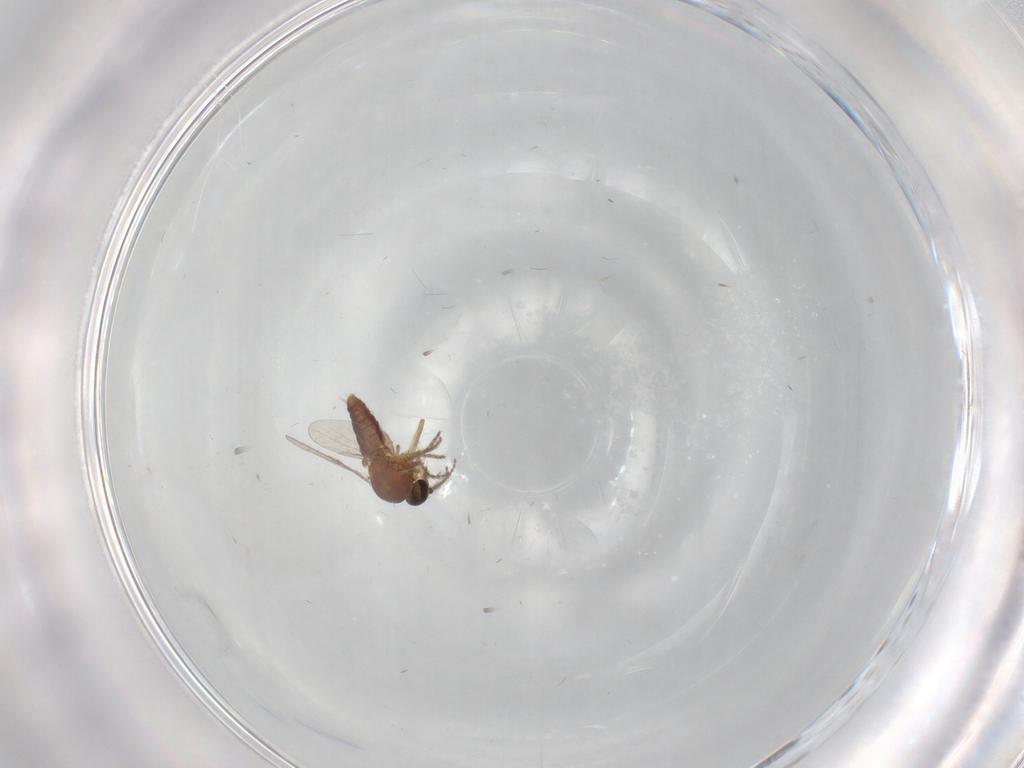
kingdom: Animalia
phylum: Arthropoda
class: Insecta
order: Diptera
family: Ceratopogonidae
